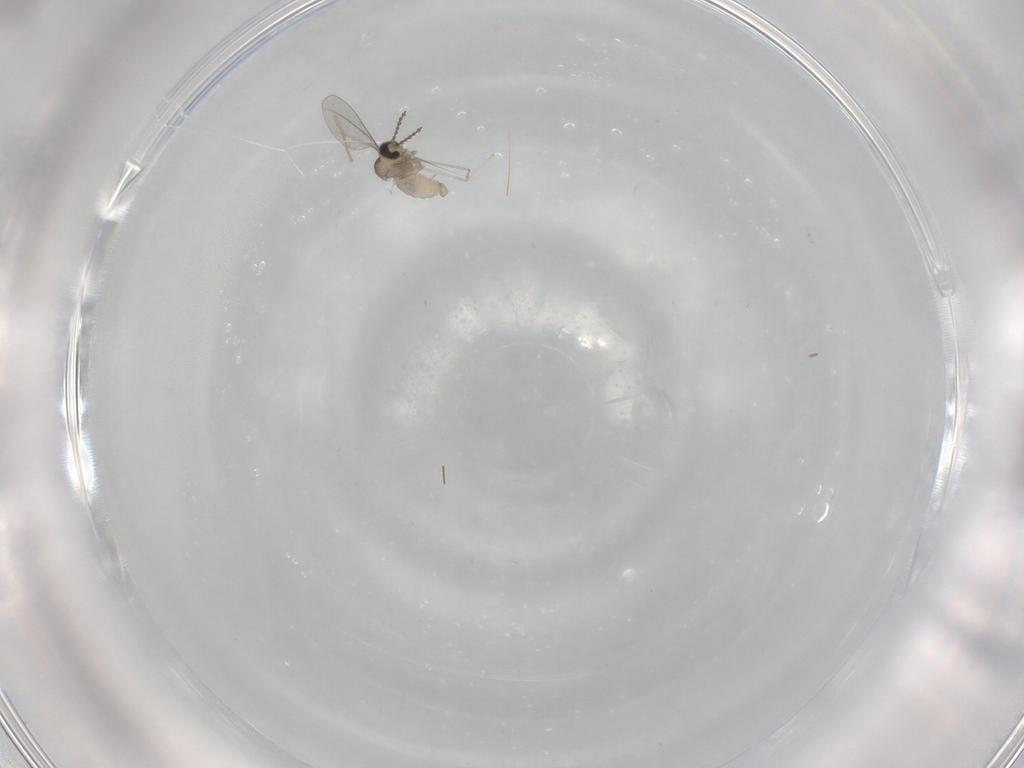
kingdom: Animalia
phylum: Arthropoda
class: Insecta
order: Diptera
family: Cecidomyiidae
